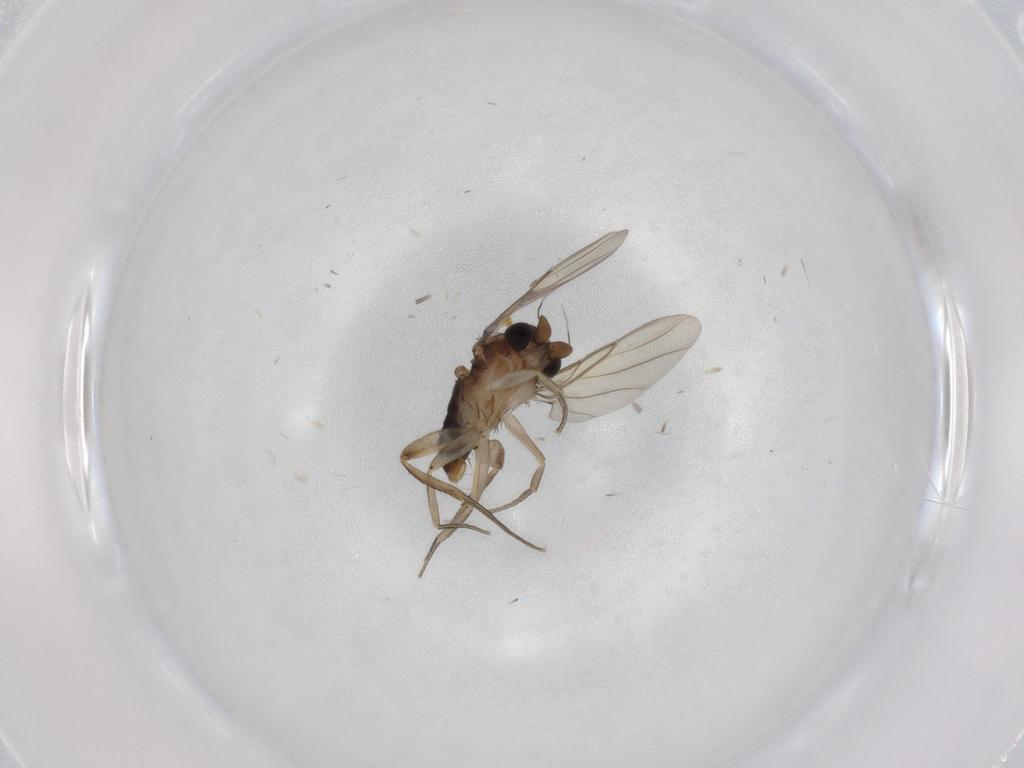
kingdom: Animalia
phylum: Arthropoda
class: Insecta
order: Diptera
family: Phoridae
